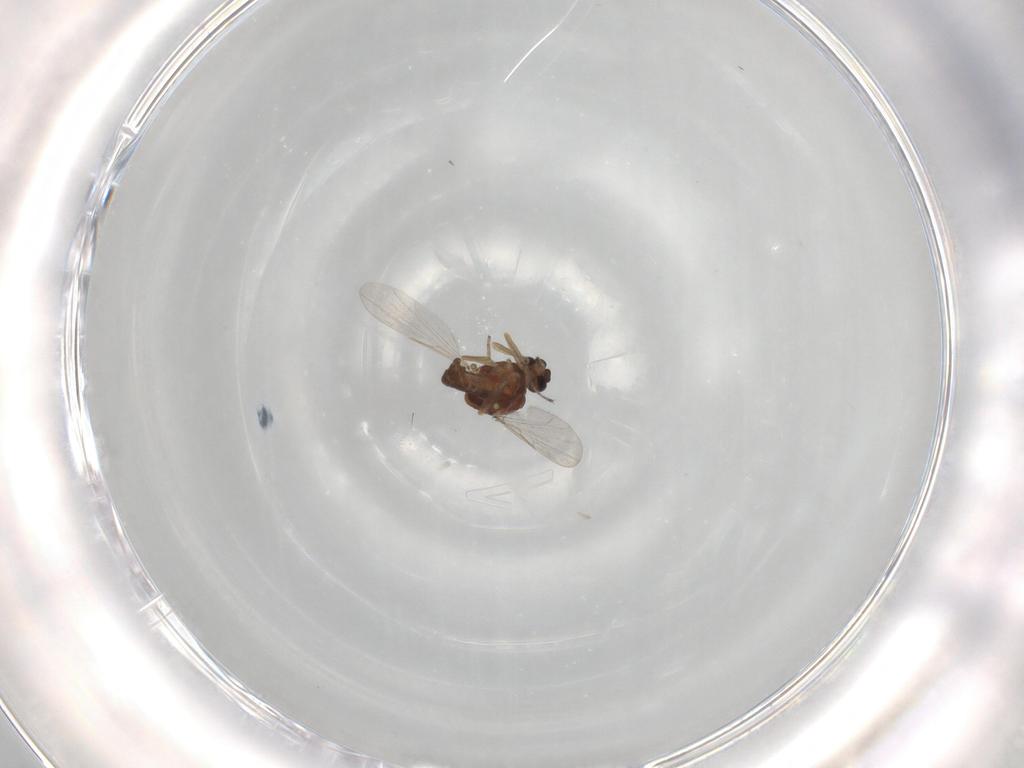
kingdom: Animalia
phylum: Arthropoda
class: Insecta
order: Diptera
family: Ceratopogonidae
